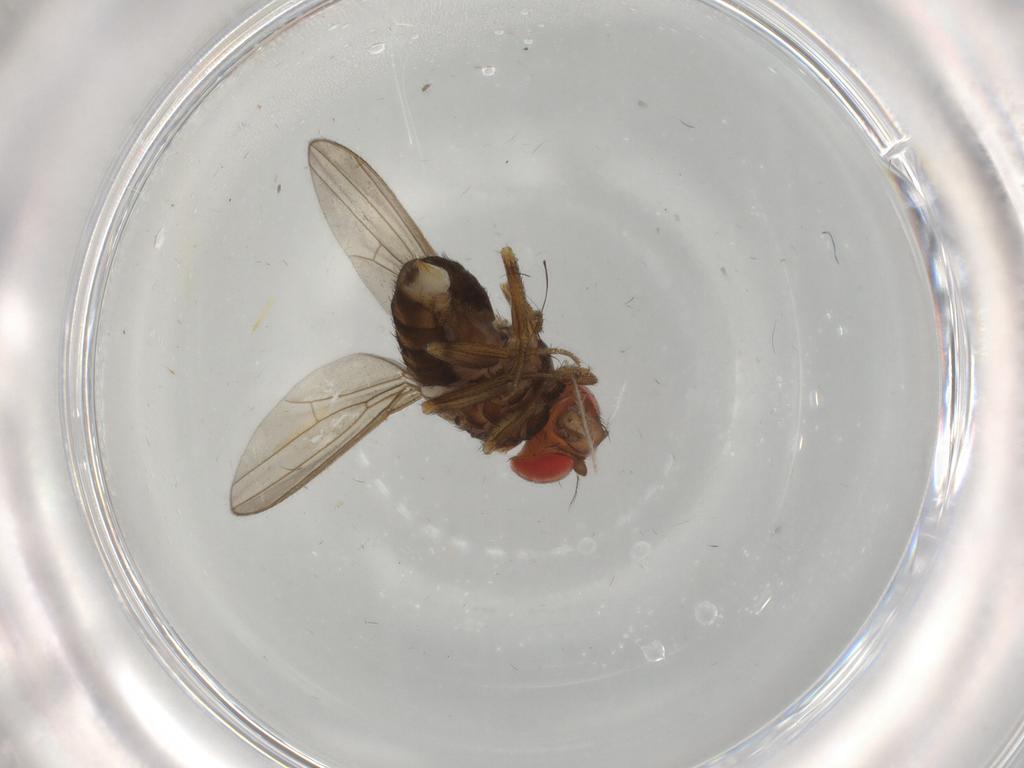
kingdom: Animalia
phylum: Arthropoda
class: Insecta
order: Diptera
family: Drosophilidae
